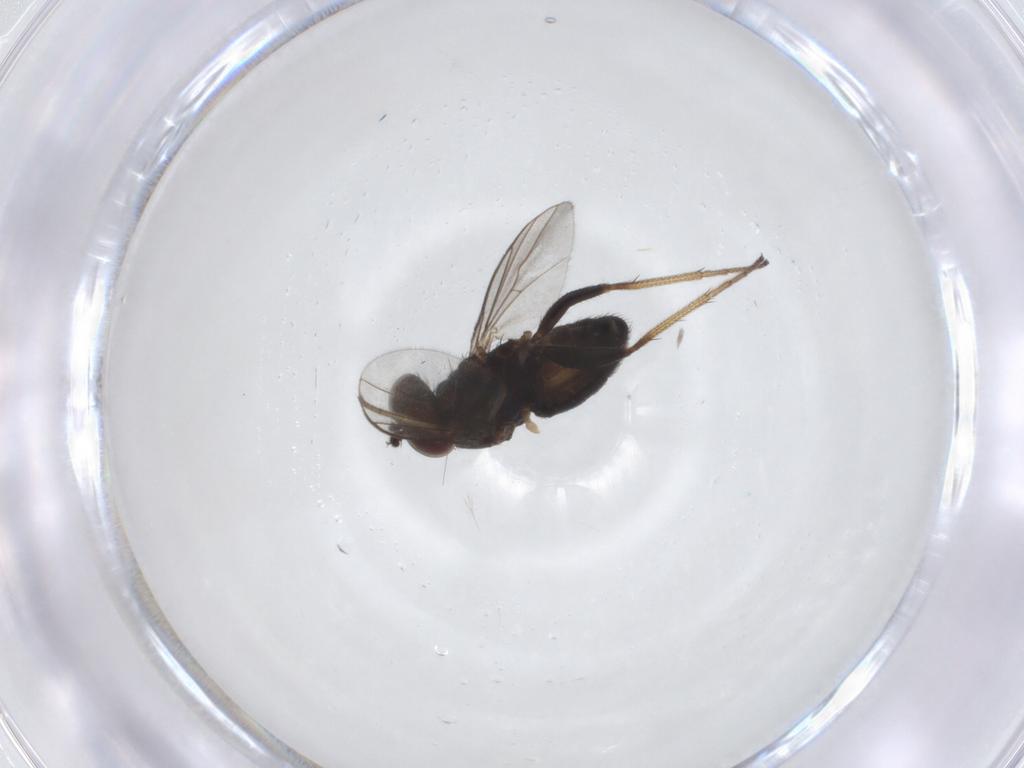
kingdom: Animalia
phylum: Arthropoda
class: Insecta
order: Diptera
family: Dolichopodidae
